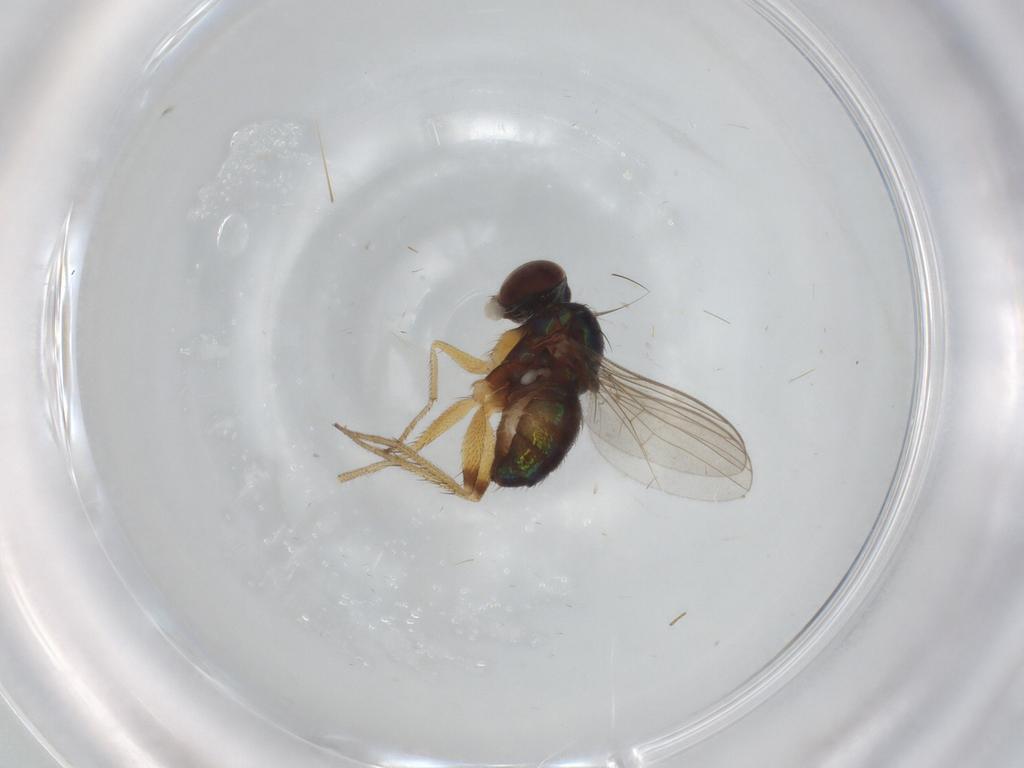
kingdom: Animalia
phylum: Arthropoda
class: Insecta
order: Diptera
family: Dolichopodidae
